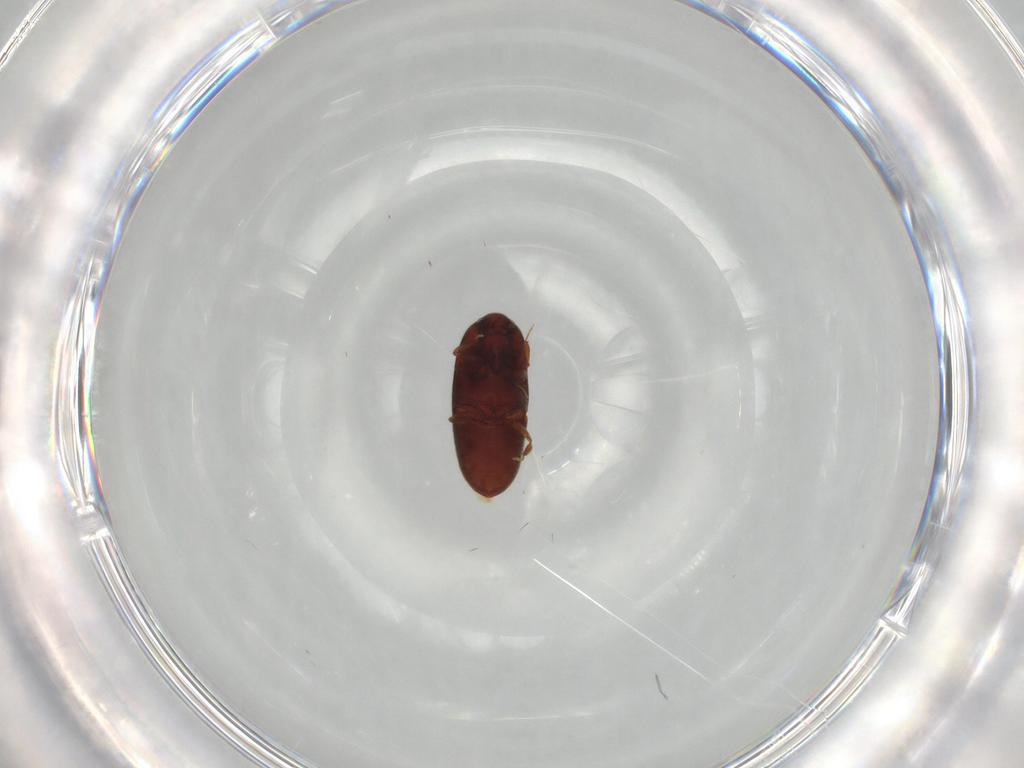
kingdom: Animalia
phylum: Arthropoda
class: Insecta
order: Coleoptera
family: Throscidae
